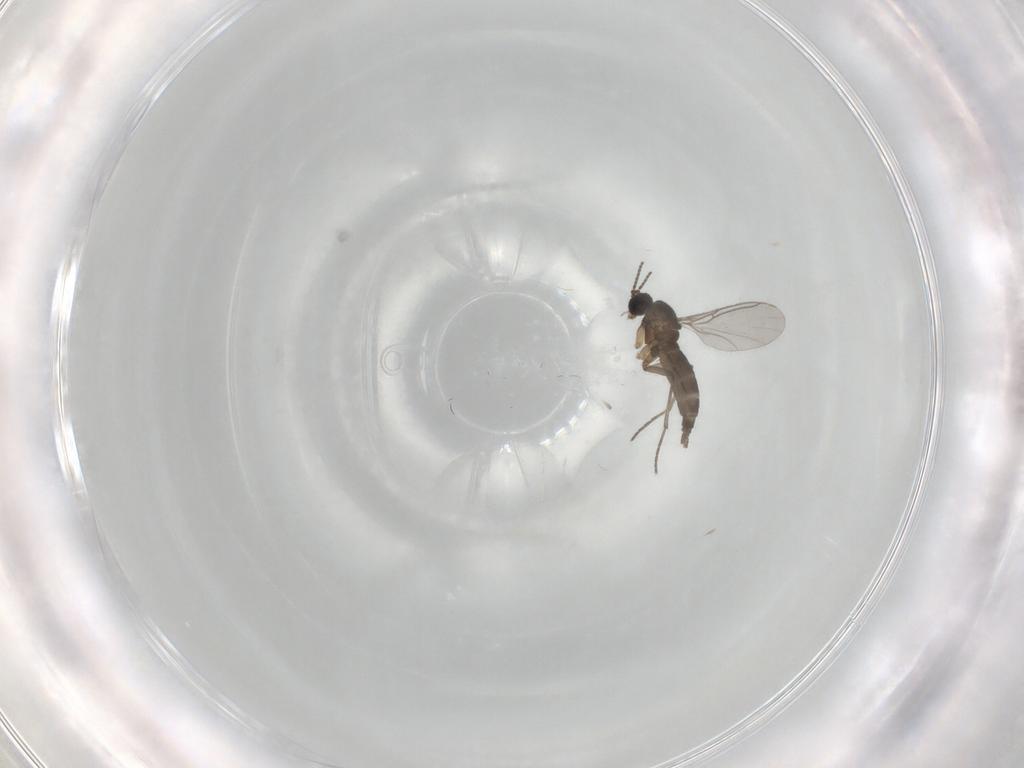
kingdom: Animalia
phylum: Arthropoda
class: Insecta
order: Diptera
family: Sciaridae
